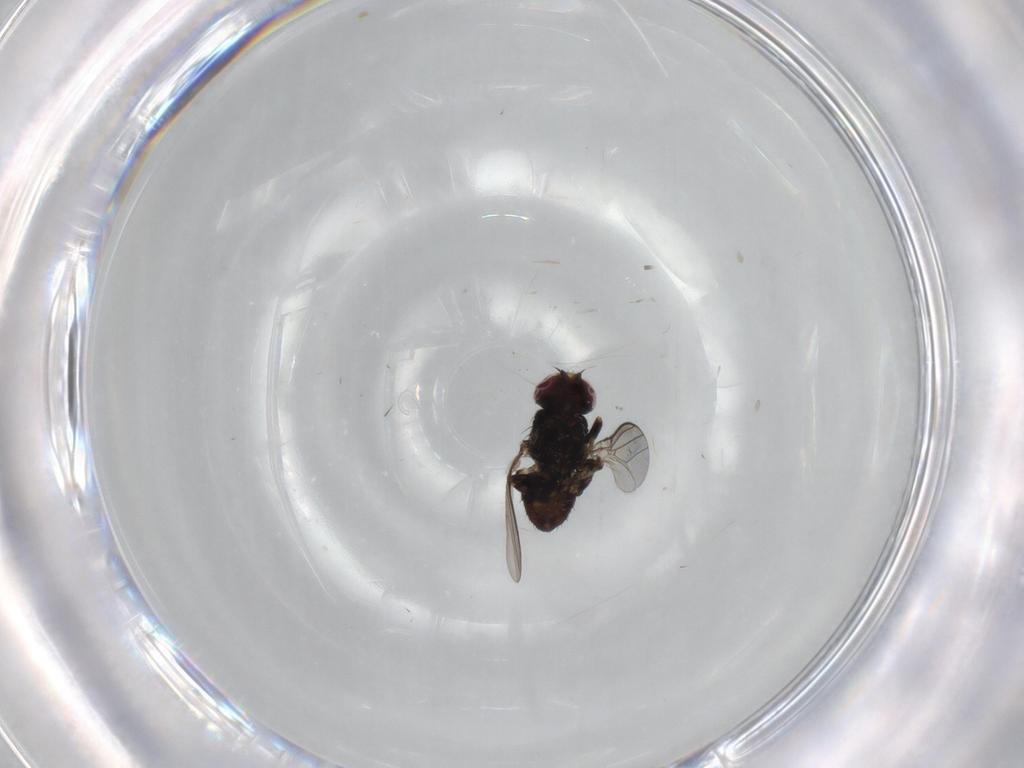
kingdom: Animalia
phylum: Arthropoda
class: Insecta
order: Diptera
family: Chloropidae
